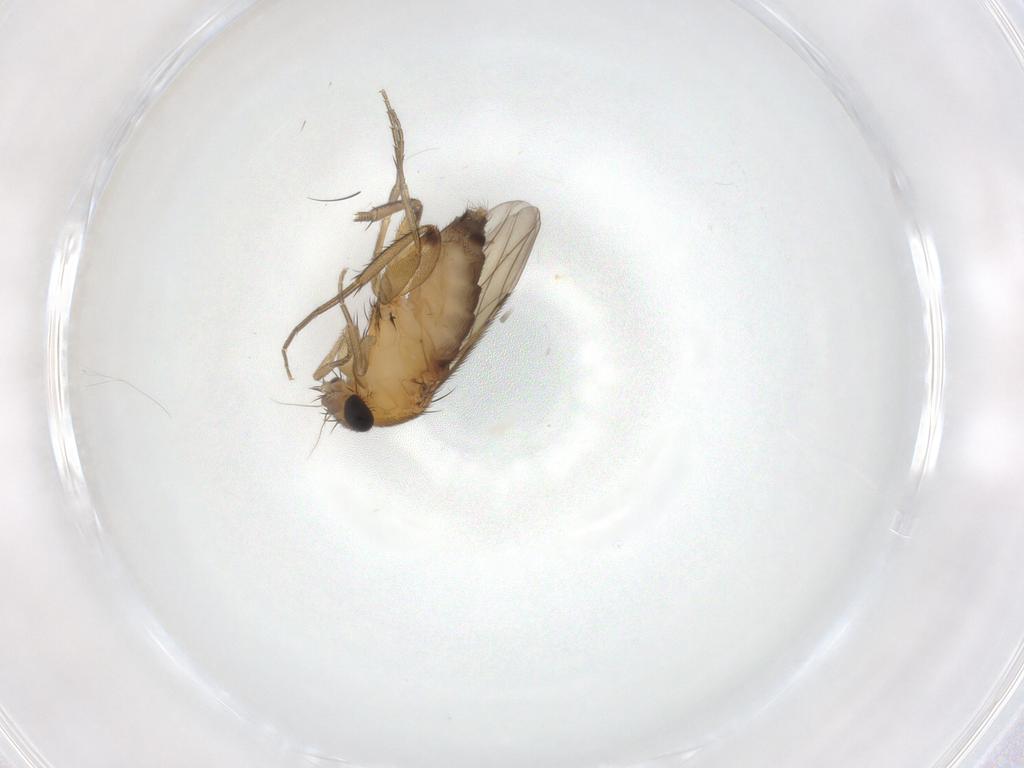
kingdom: Animalia
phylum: Arthropoda
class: Insecta
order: Diptera
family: Phoridae
